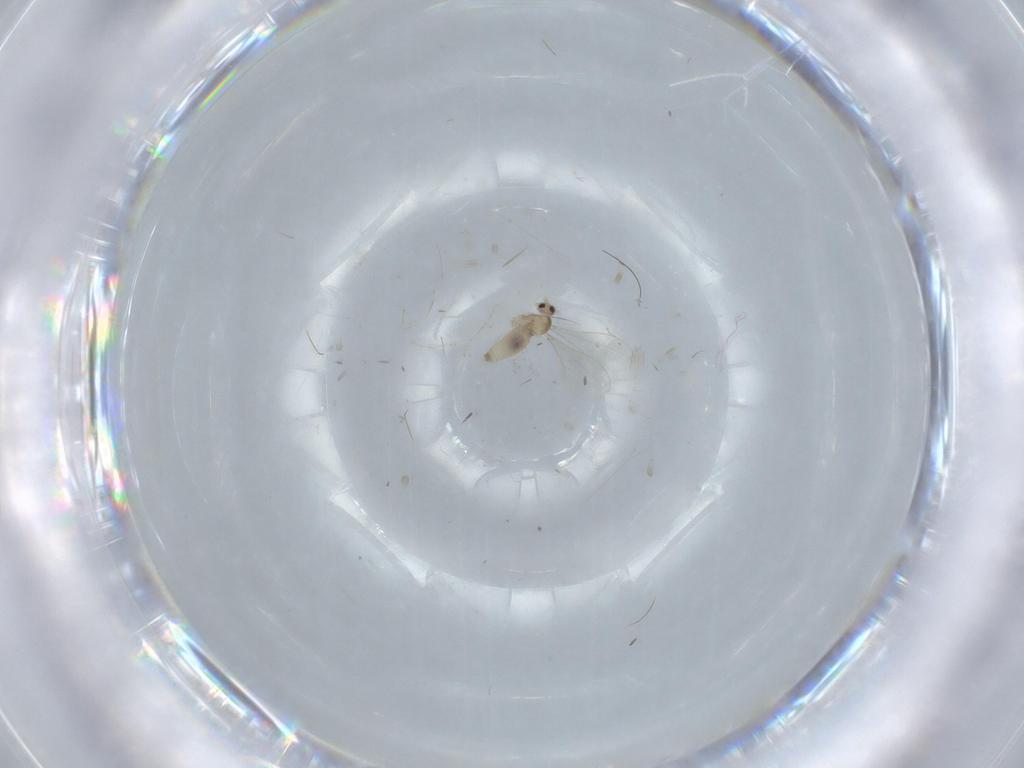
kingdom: Animalia
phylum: Arthropoda
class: Insecta
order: Diptera
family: Cecidomyiidae
